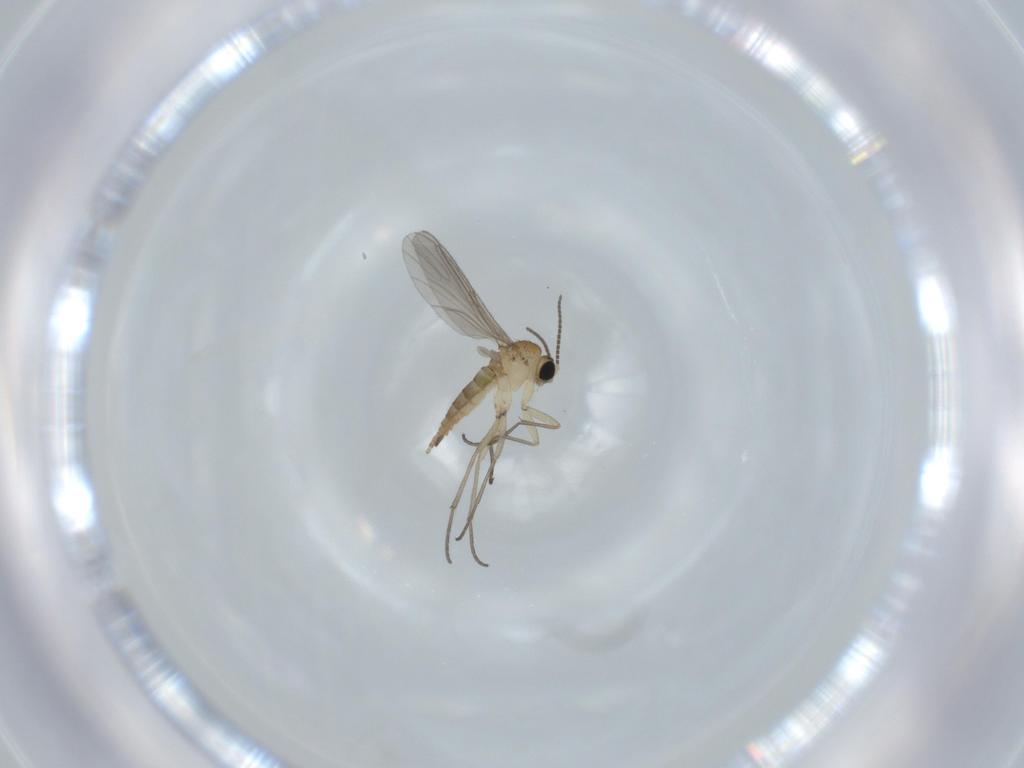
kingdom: Animalia
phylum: Arthropoda
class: Insecta
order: Diptera
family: Sciaridae
